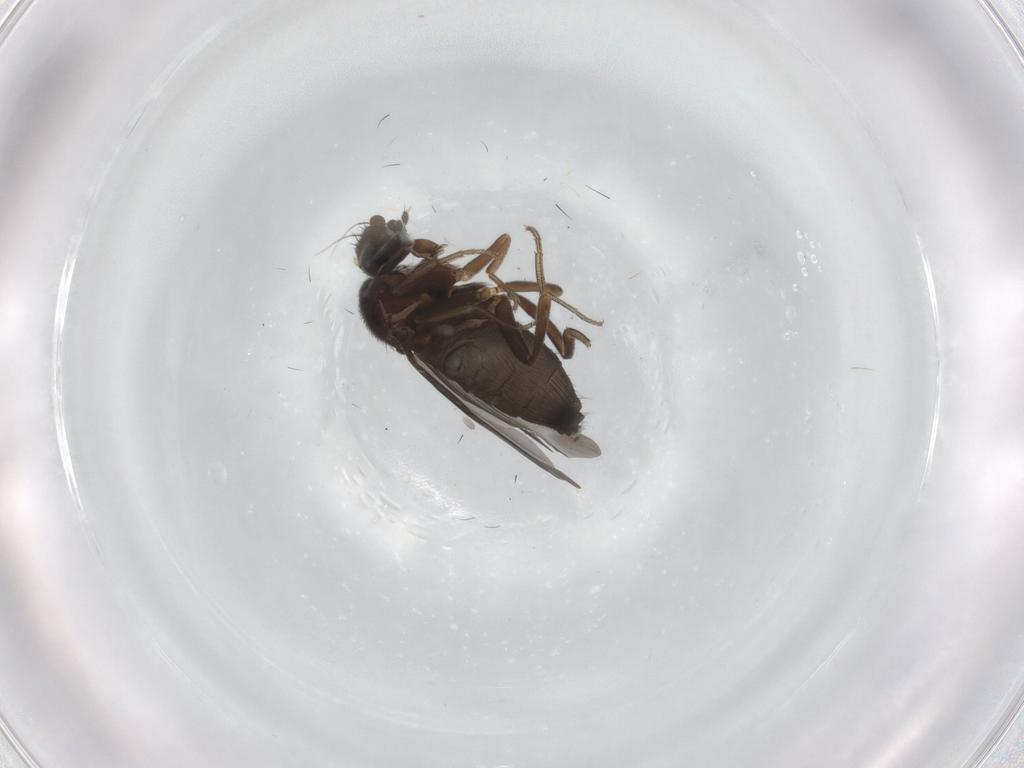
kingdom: Animalia
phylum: Arthropoda
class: Insecta
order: Diptera
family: Phoridae
